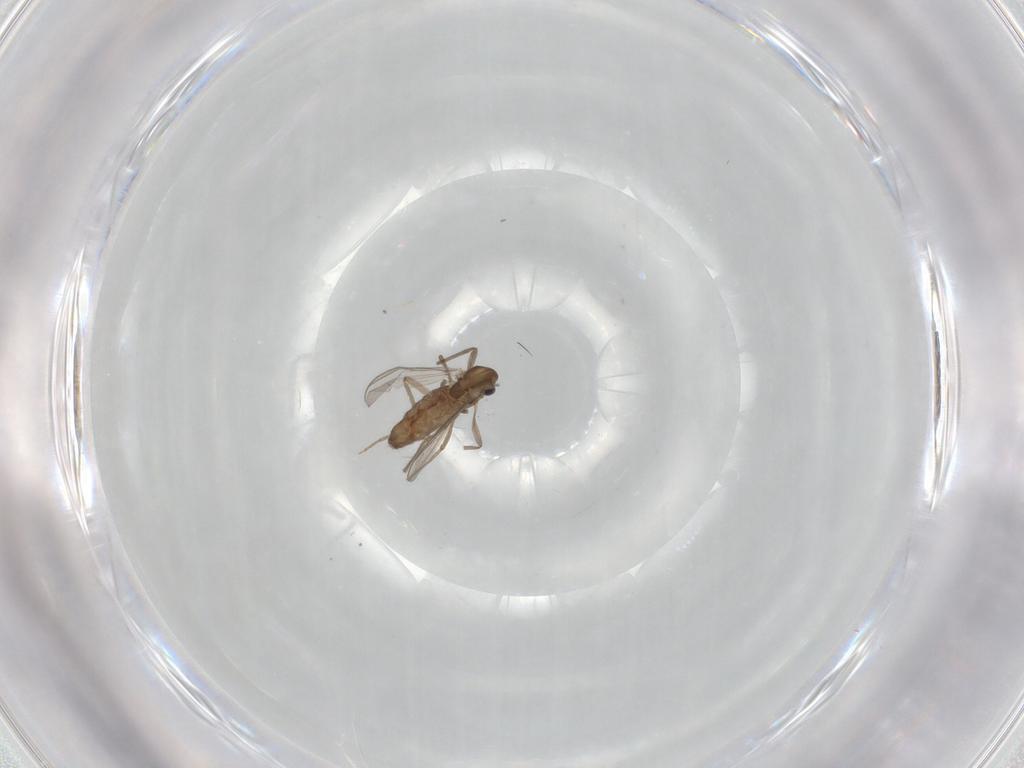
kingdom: Animalia
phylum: Arthropoda
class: Insecta
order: Diptera
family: Chironomidae
